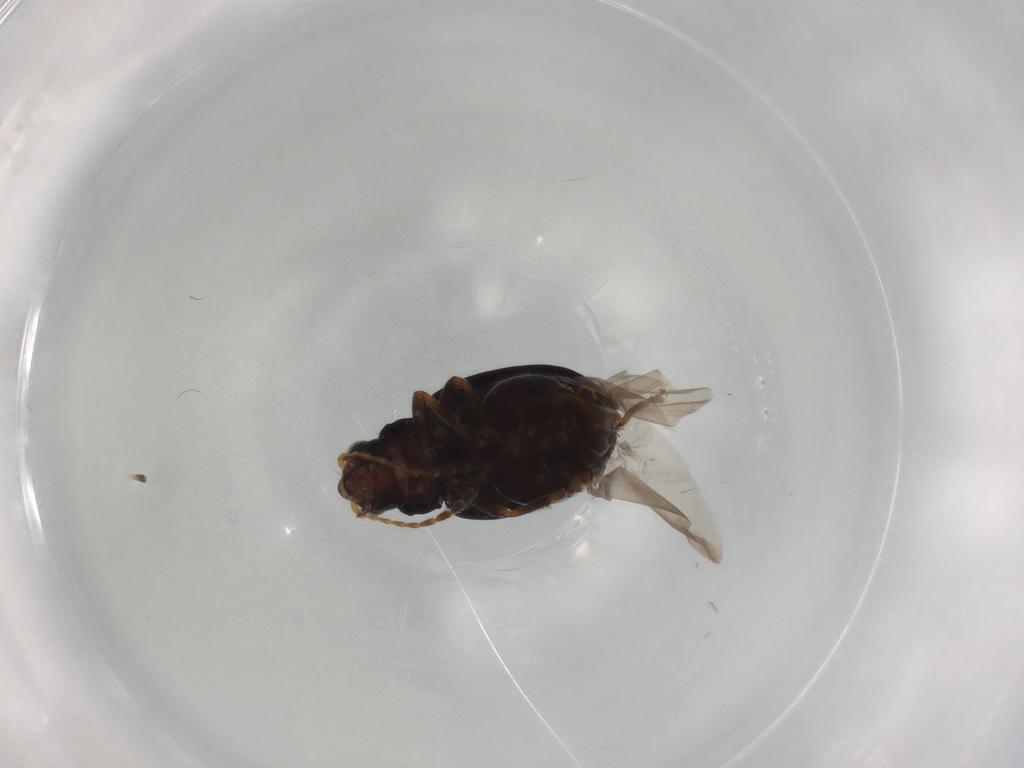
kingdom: Animalia
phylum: Arthropoda
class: Insecta
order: Coleoptera
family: Chrysomelidae
